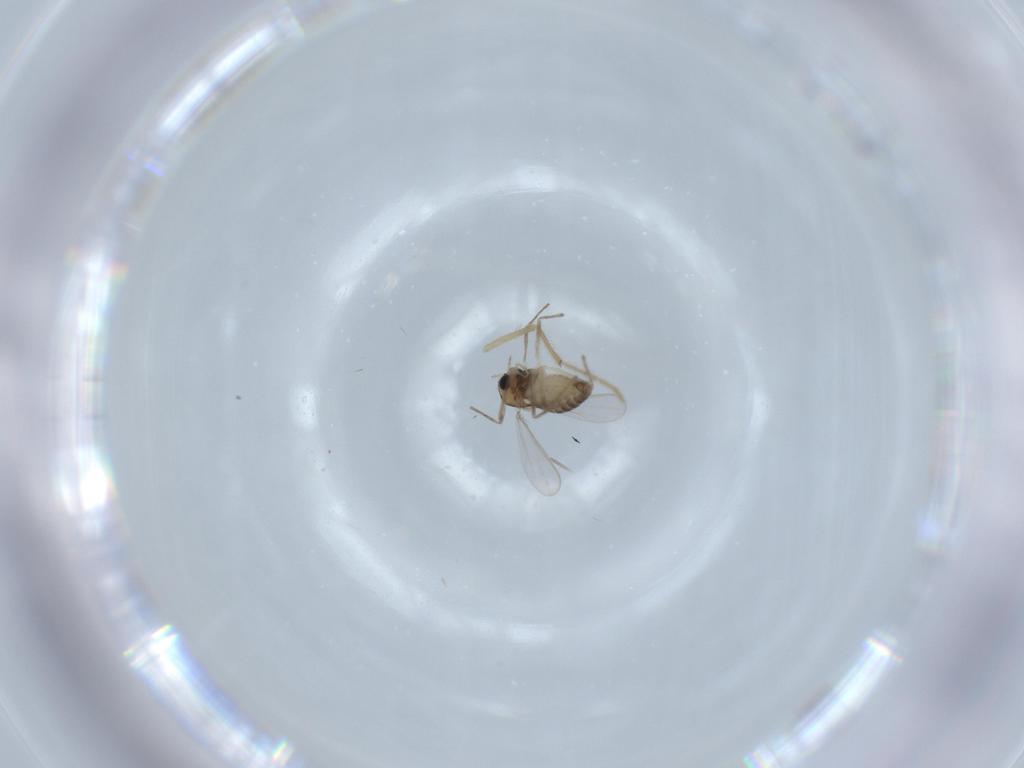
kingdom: Animalia
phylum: Arthropoda
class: Insecta
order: Diptera
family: Chironomidae
